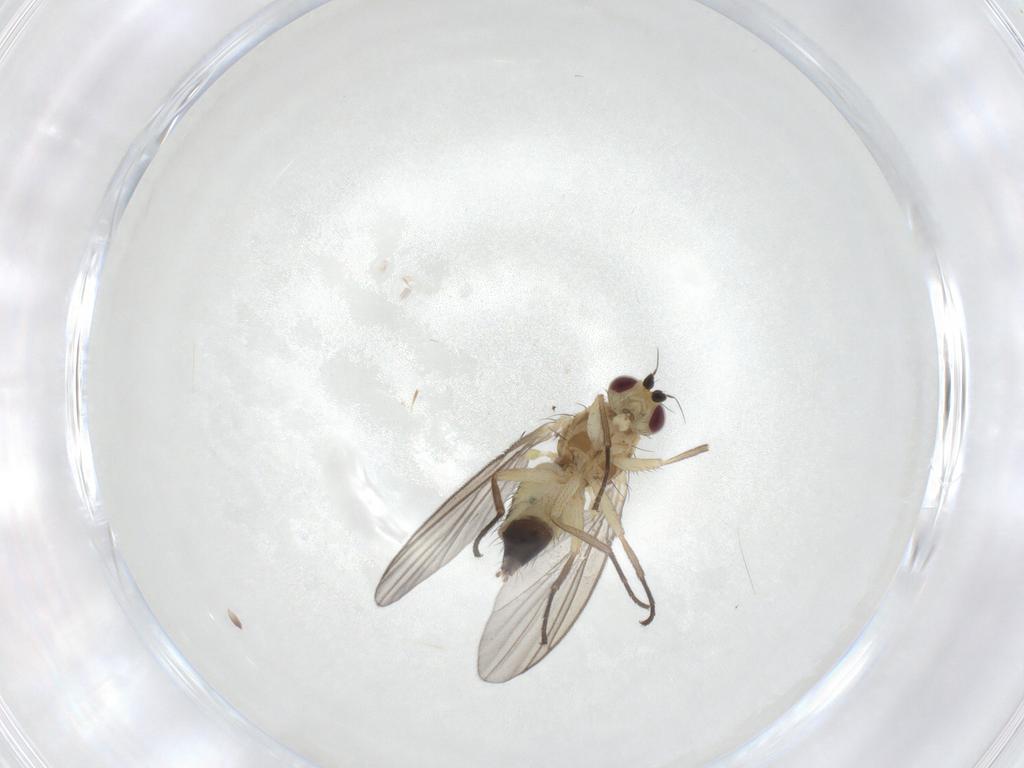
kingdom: Animalia
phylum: Arthropoda
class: Insecta
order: Diptera
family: Agromyzidae
